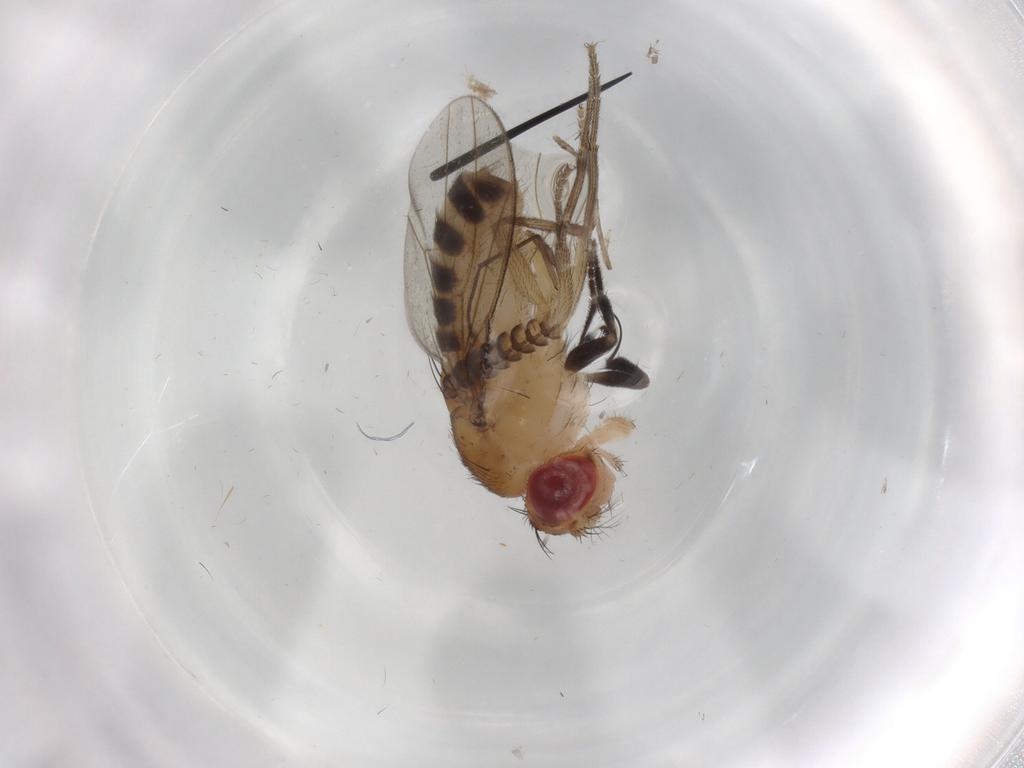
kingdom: Animalia
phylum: Arthropoda
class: Insecta
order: Diptera
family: Drosophilidae
